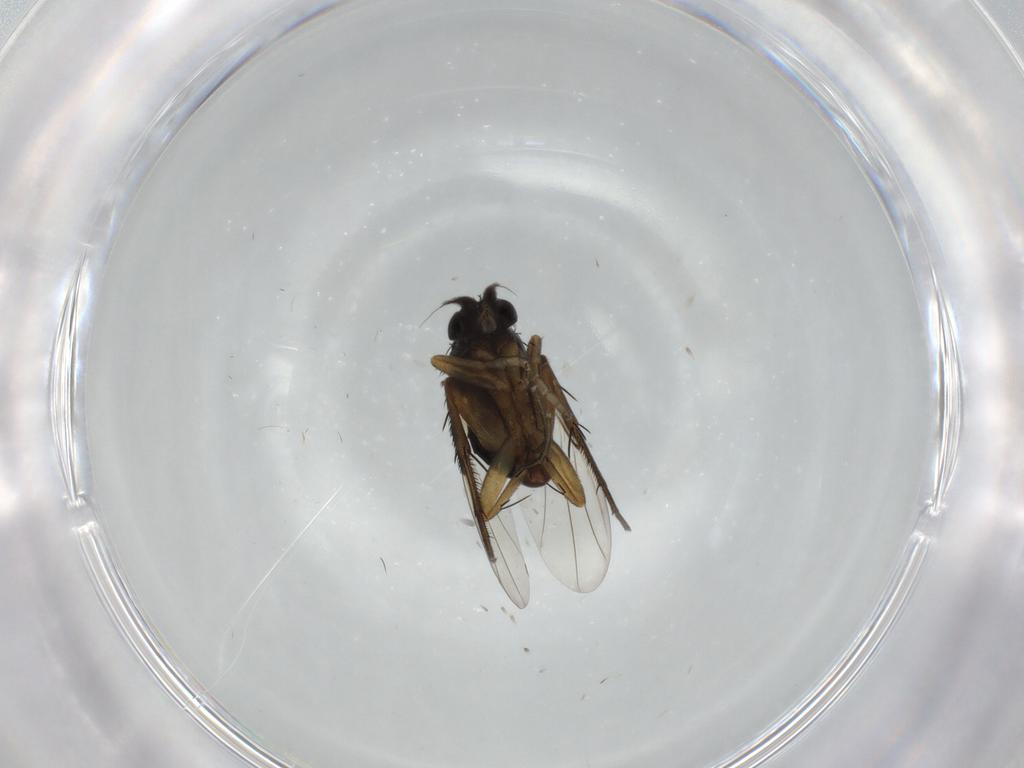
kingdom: Animalia
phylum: Arthropoda
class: Insecta
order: Diptera
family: Phoridae
